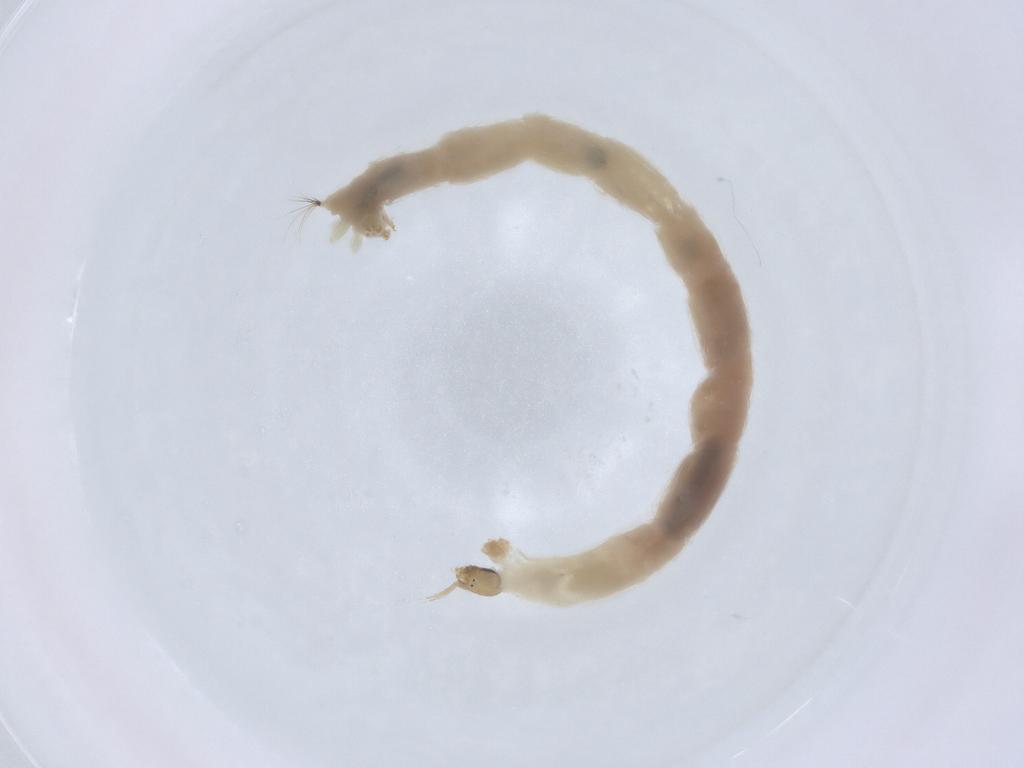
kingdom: Animalia
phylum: Arthropoda
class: Insecta
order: Diptera
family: Chironomidae
